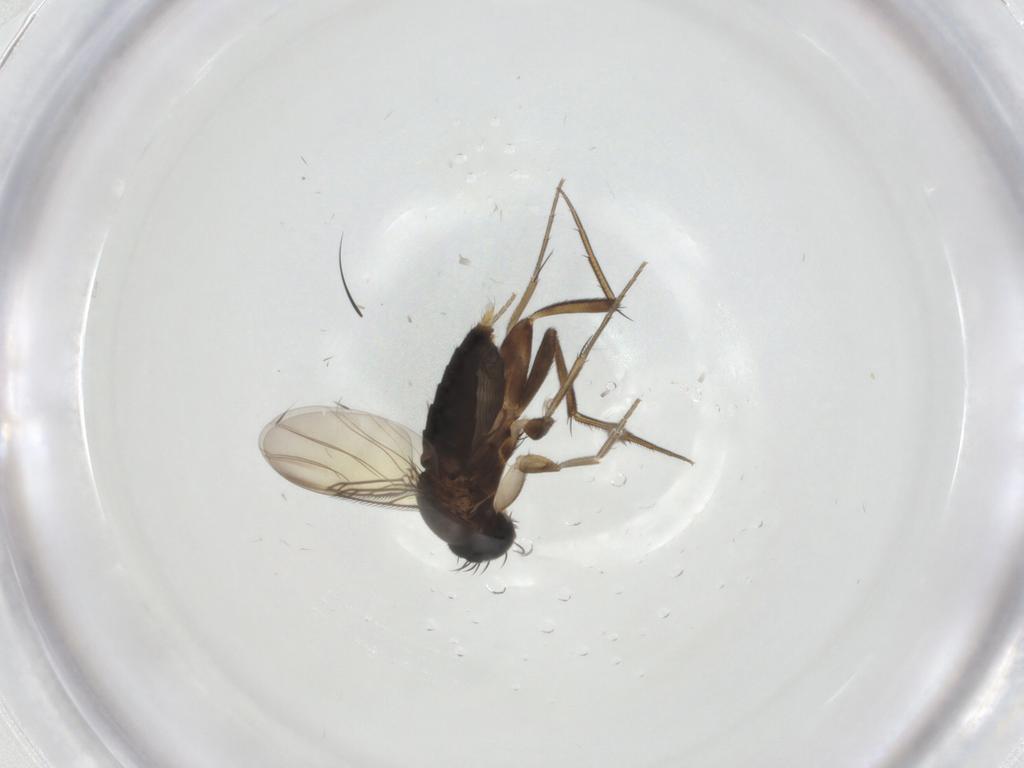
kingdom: Animalia
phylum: Arthropoda
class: Insecta
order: Diptera
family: Phoridae
